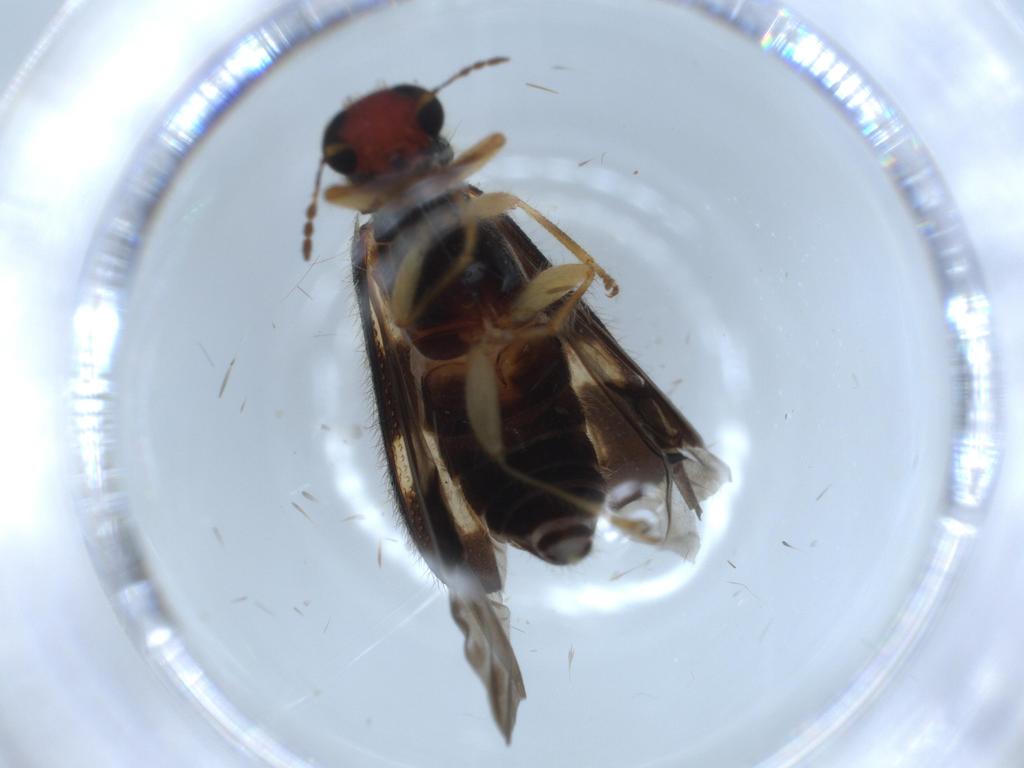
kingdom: Animalia
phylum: Arthropoda
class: Insecta
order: Coleoptera
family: Cleridae
